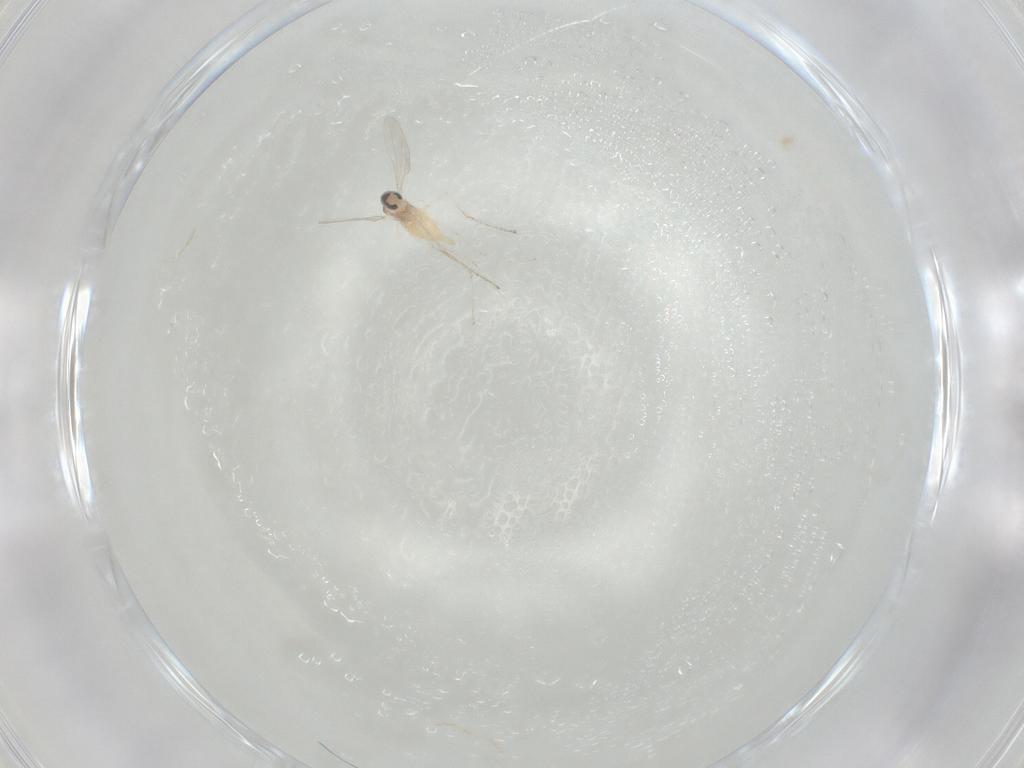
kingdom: Animalia
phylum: Arthropoda
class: Insecta
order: Diptera
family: Cecidomyiidae
